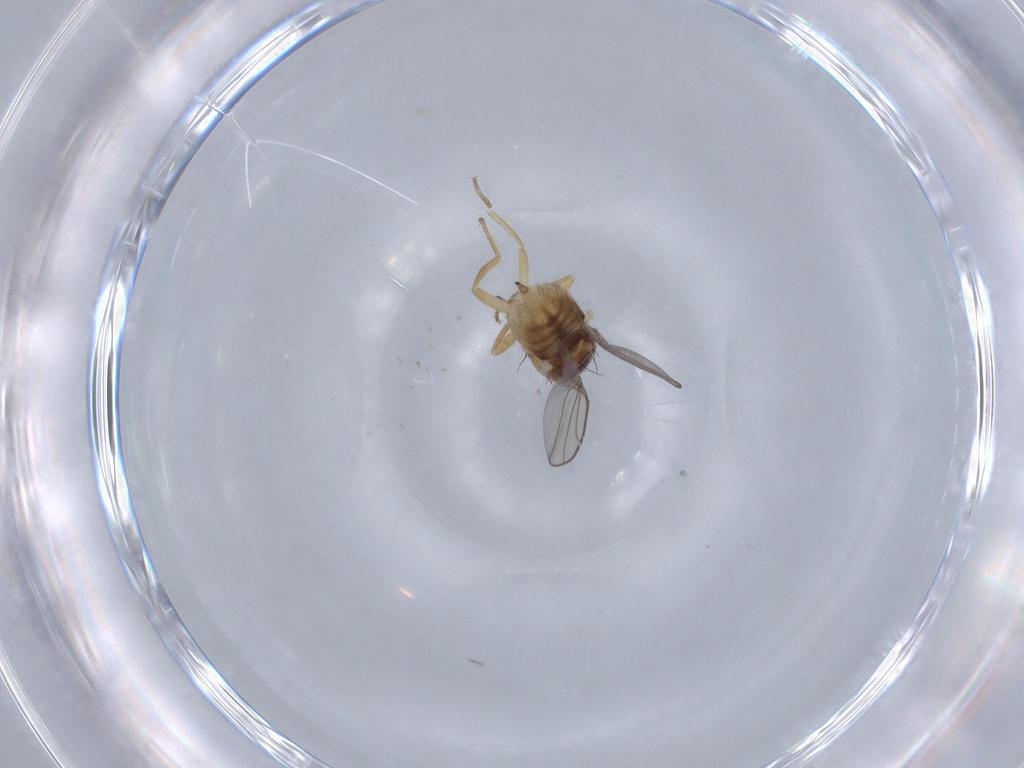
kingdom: Animalia
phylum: Arthropoda
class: Insecta
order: Diptera
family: Chloropidae
